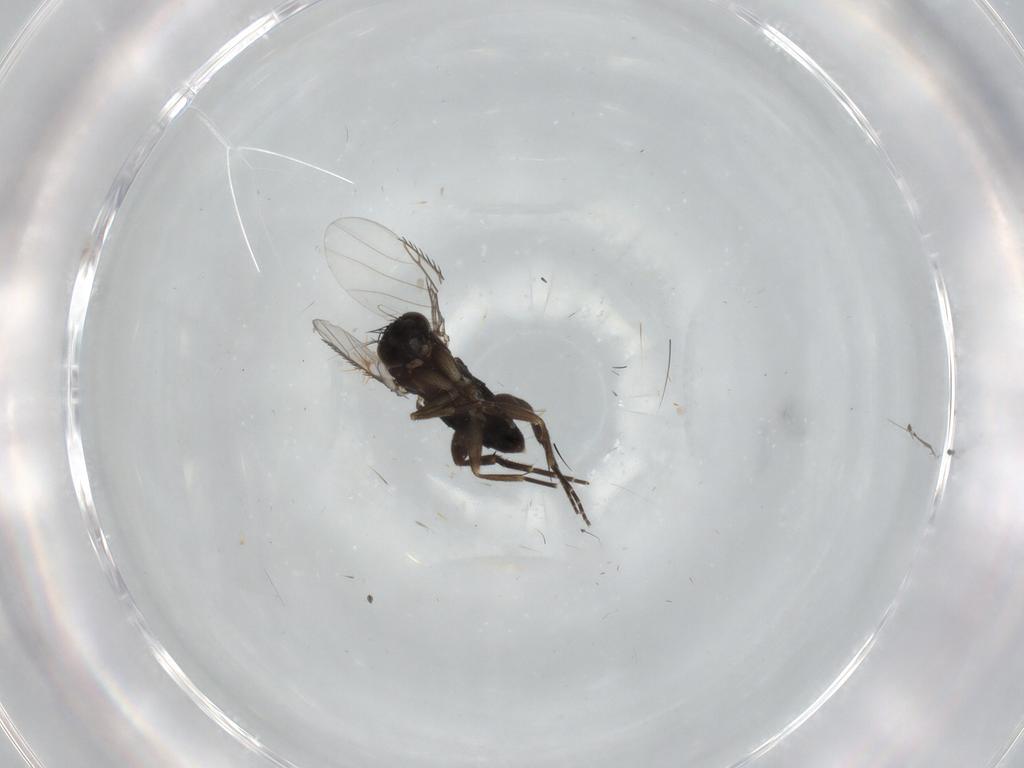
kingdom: Animalia
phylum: Arthropoda
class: Insecta
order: Diptera
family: Phoridae
